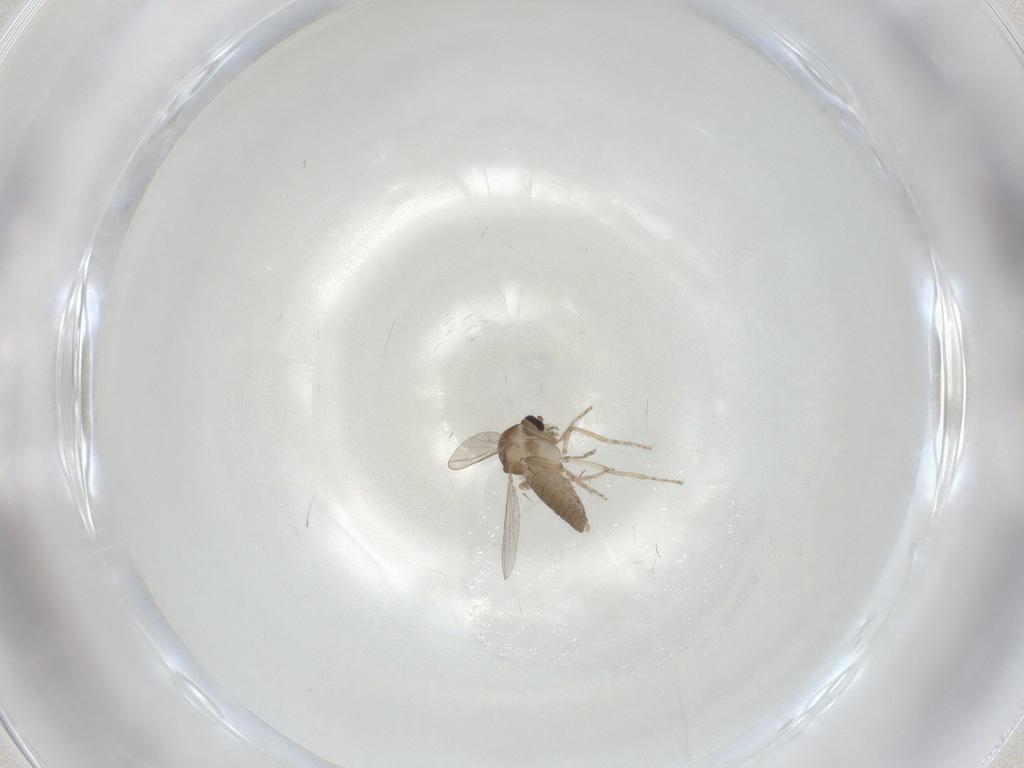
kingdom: Animalia
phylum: Arthropoda
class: Insecta
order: Diptera
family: Ceratopogonidae
